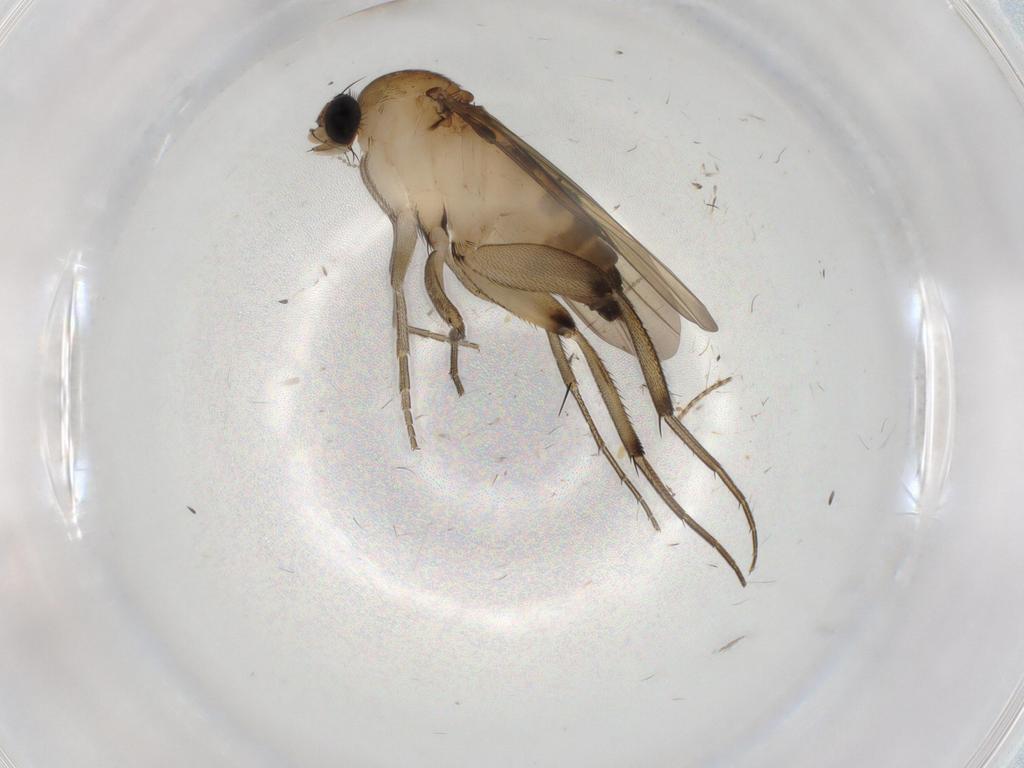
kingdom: Animalia
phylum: Arthropoda
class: Insecta
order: Diptera
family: Phoridae
